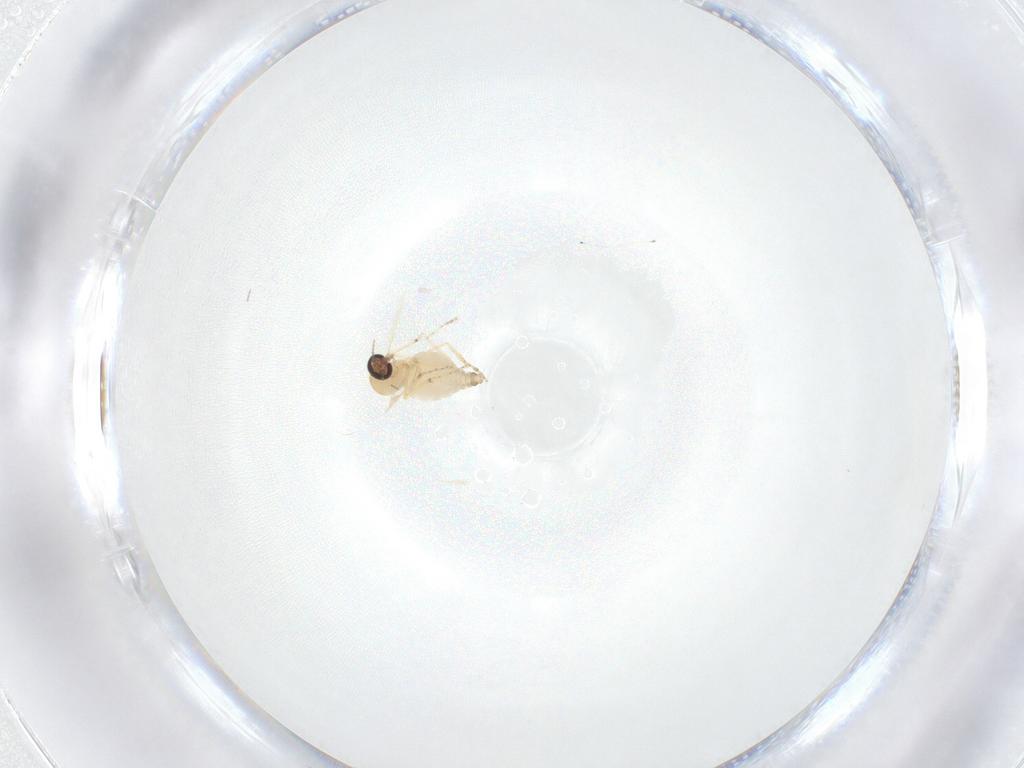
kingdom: Animalia
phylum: Arthropoda
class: Insecta
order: Diptera
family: Ceratopogonidae
